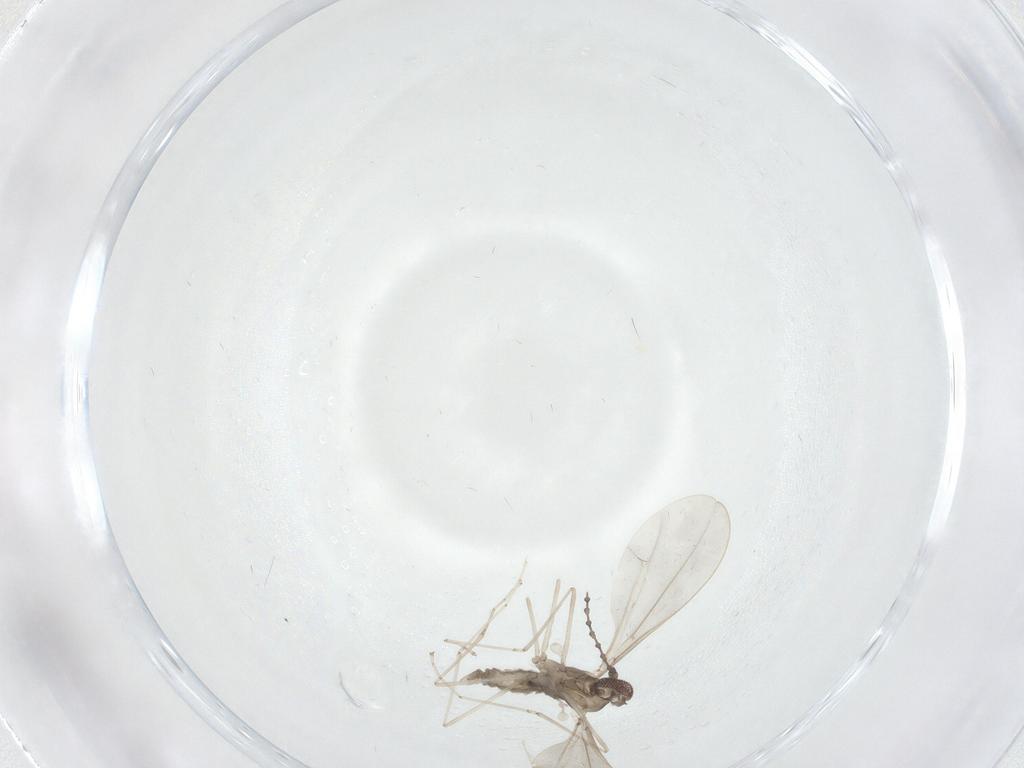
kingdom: Animalia
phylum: Arthropoda
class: Insecta
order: Diptera
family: Cecidomyiidae
